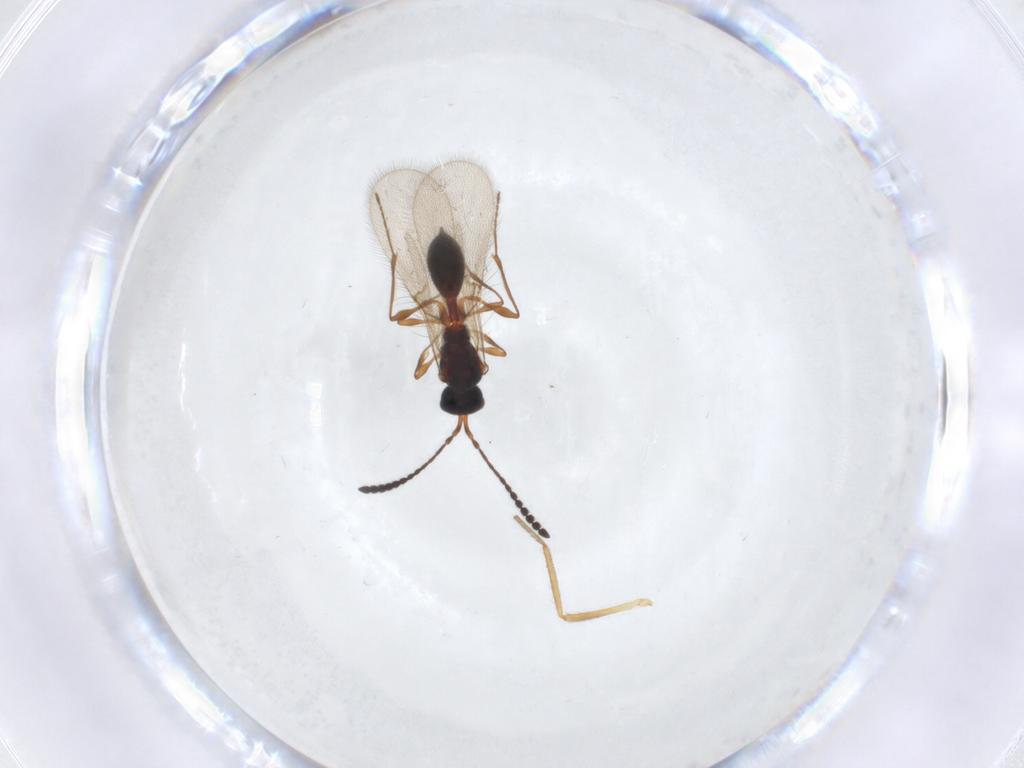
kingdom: Animalia
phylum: Arthropoda
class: Insecta
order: Hymenoptera
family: Diapriidae
